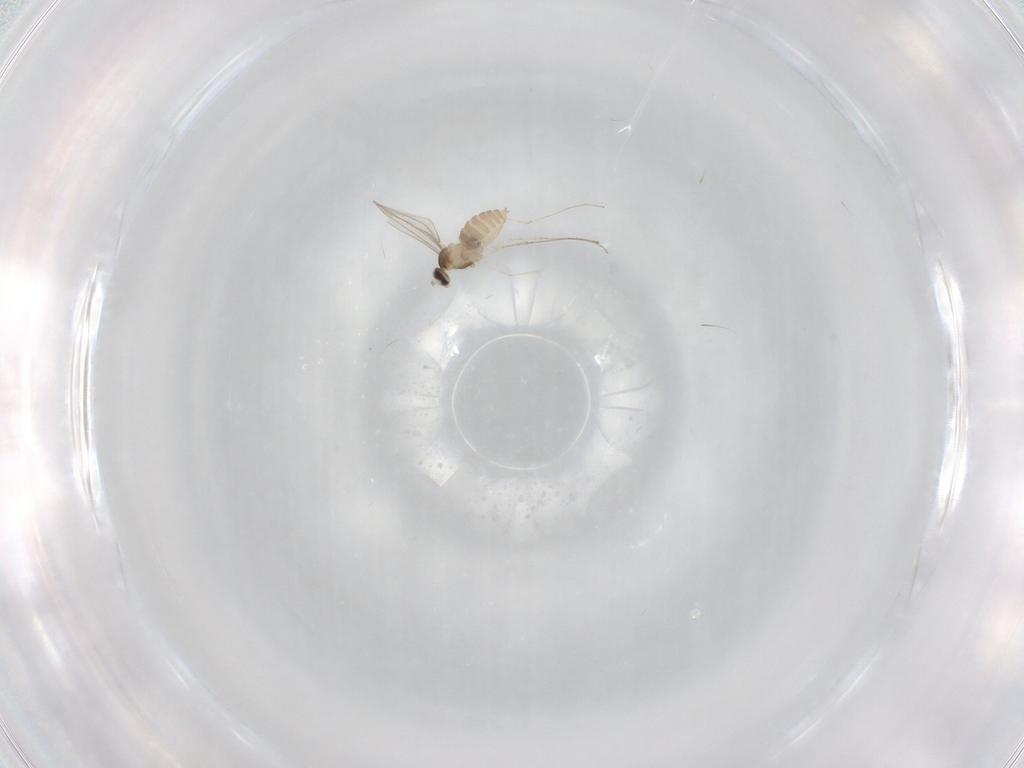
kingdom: Animalia
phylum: Arthropoda
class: Insecta
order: Diptera
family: Cecidomyiidae
